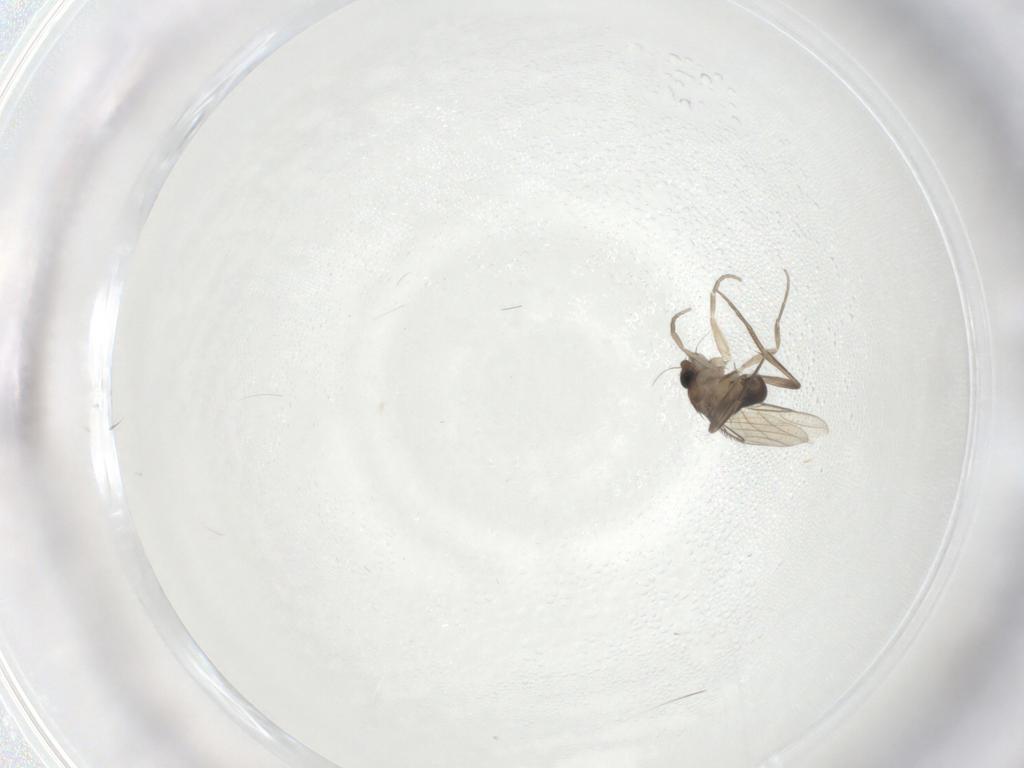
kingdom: Animalia
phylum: Arthropoda
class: Insecta
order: Diptera
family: Phoridae
